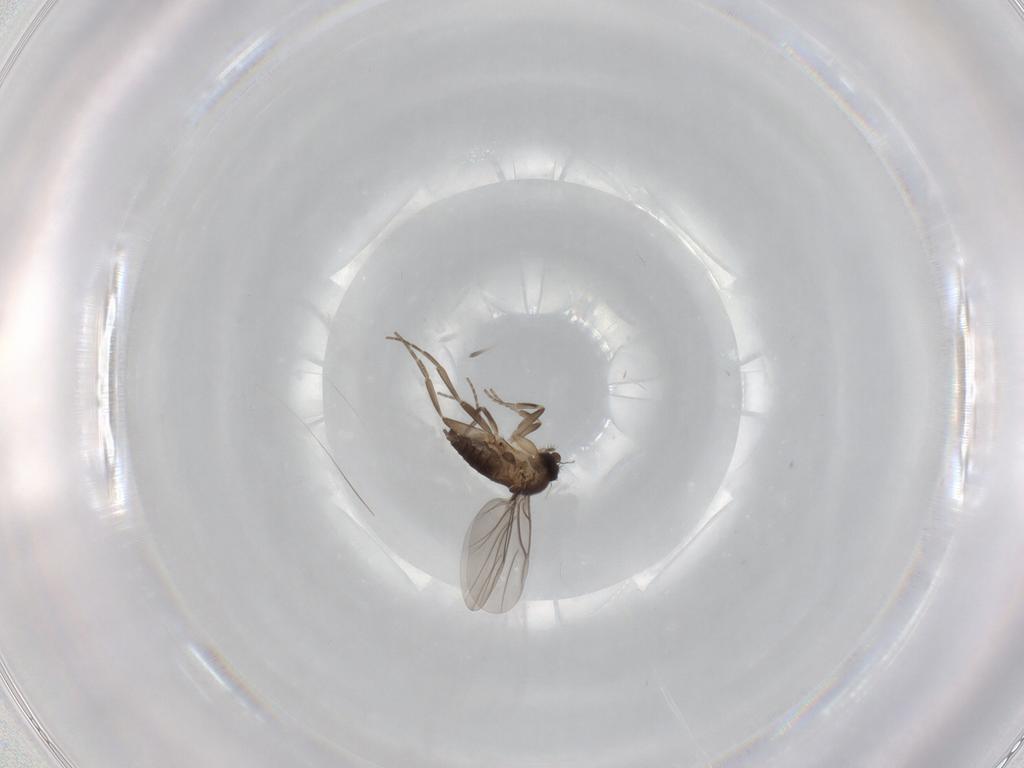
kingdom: Animalia
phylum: Arthropoda
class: Insecta
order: Diptera
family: Phoridae
